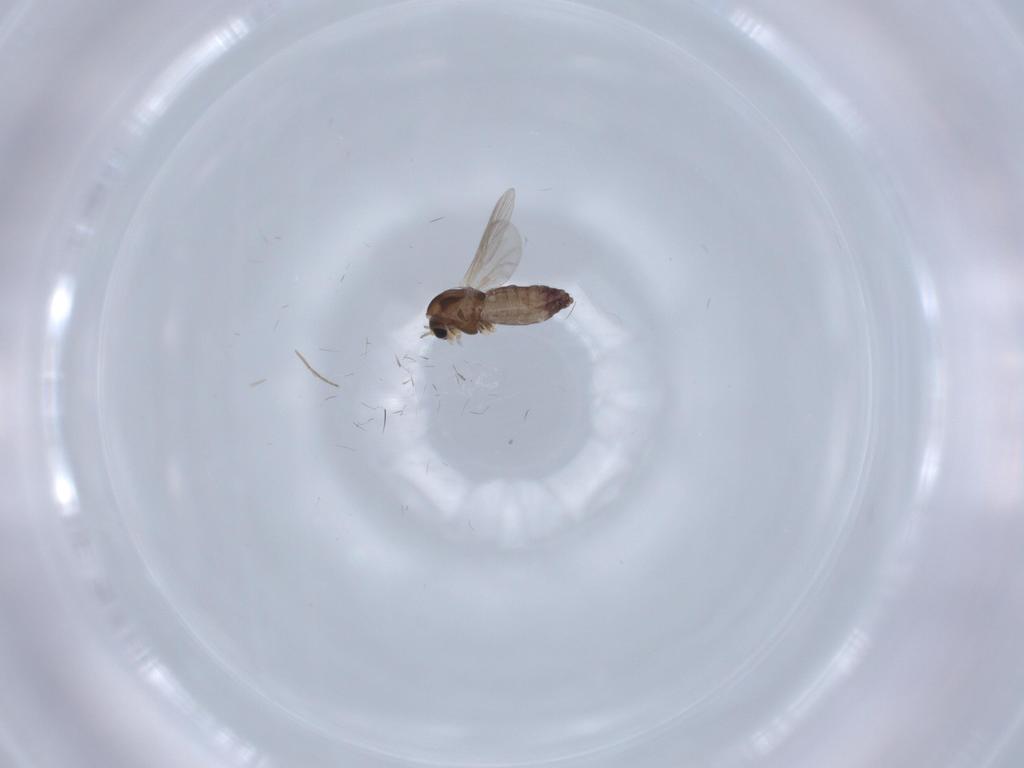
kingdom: Animalia
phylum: Arthropoda
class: Insecta
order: Diptera
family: Chironomidae
